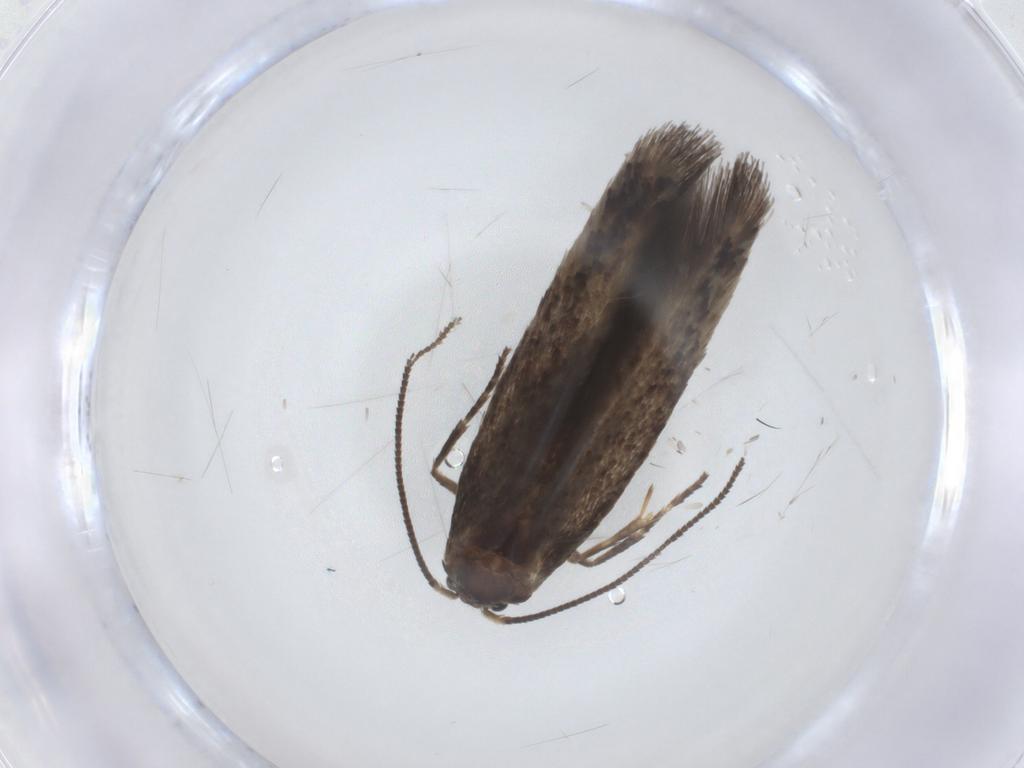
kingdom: Animalia
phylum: Arthropoda
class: Insecta
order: Lepidoptera
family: Nepticulidae
